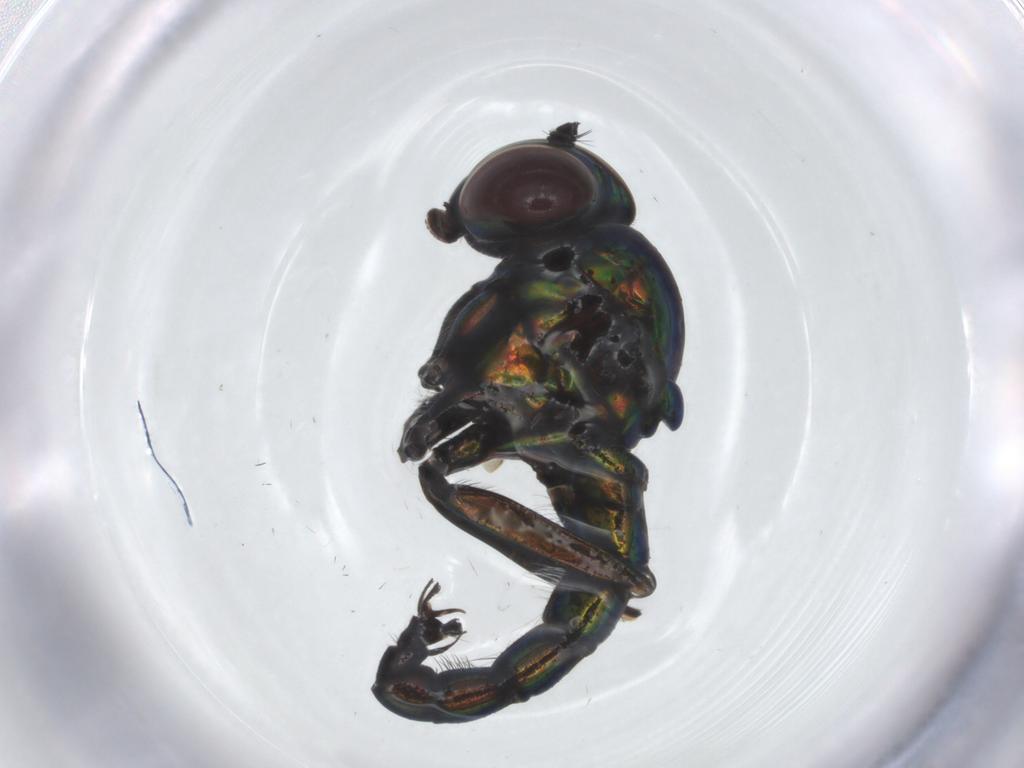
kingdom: Animalia
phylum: Arthropoda
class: Insecta
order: Diptera
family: Dolichopodidae
